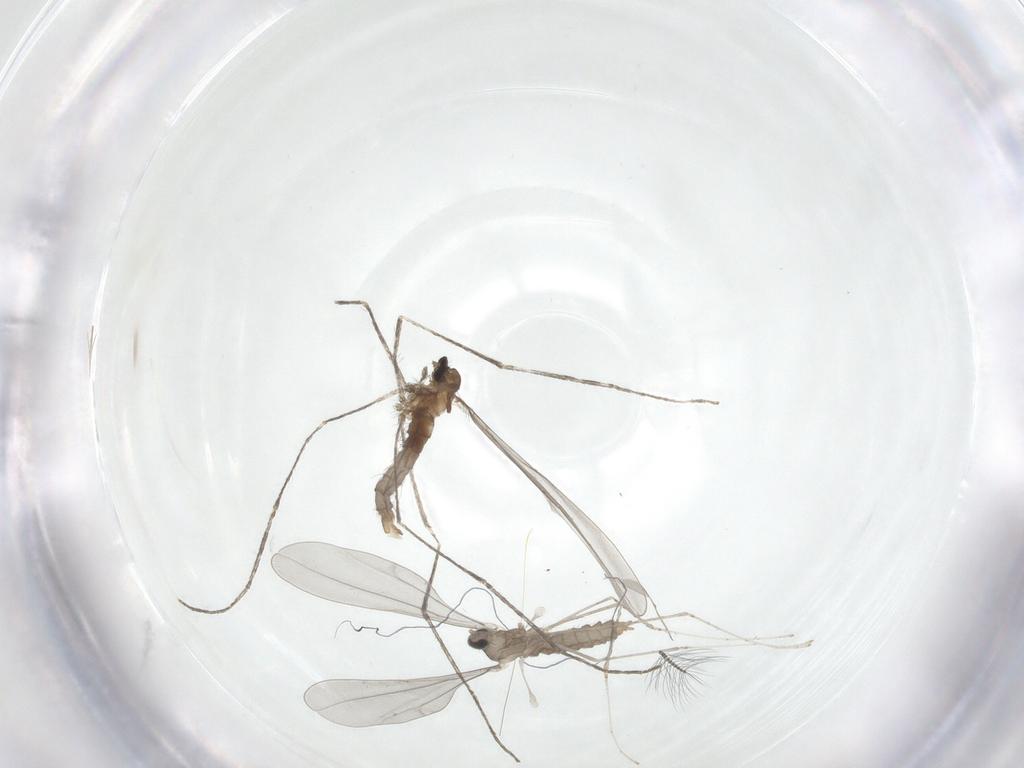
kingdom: Animalia
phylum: Arthropoda
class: Insecta
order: Diptera
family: Cecidomyiidae
